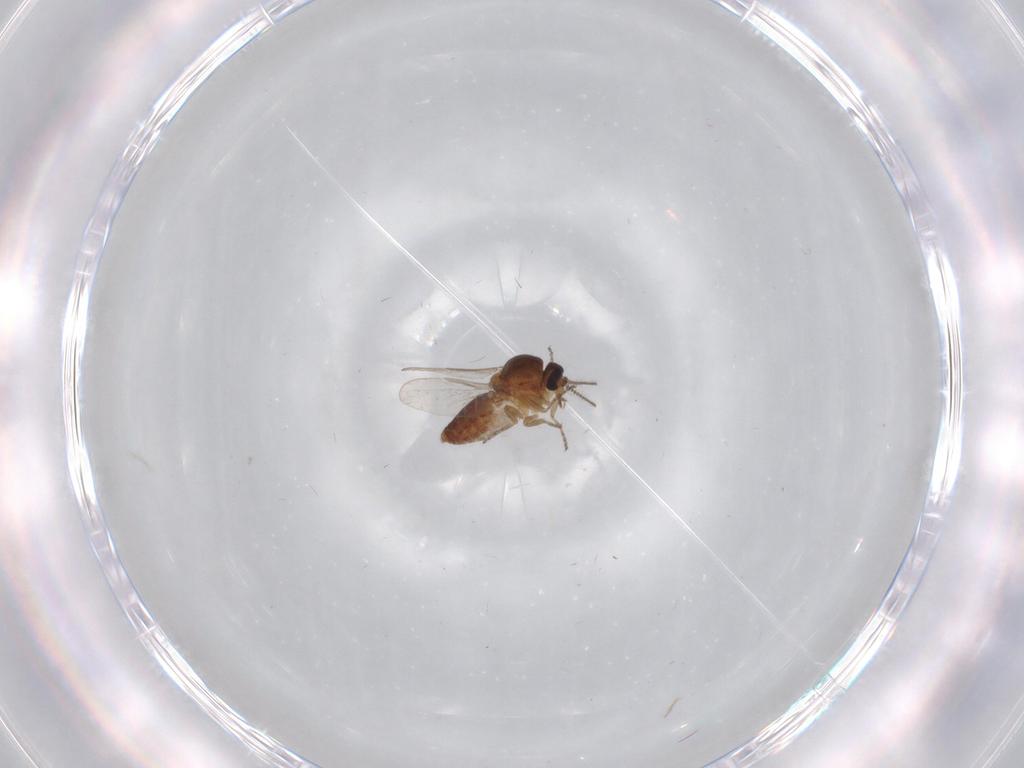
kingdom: Animalia
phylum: Arthropoda
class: Insecta
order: Diptera
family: Ceratopogonidae
